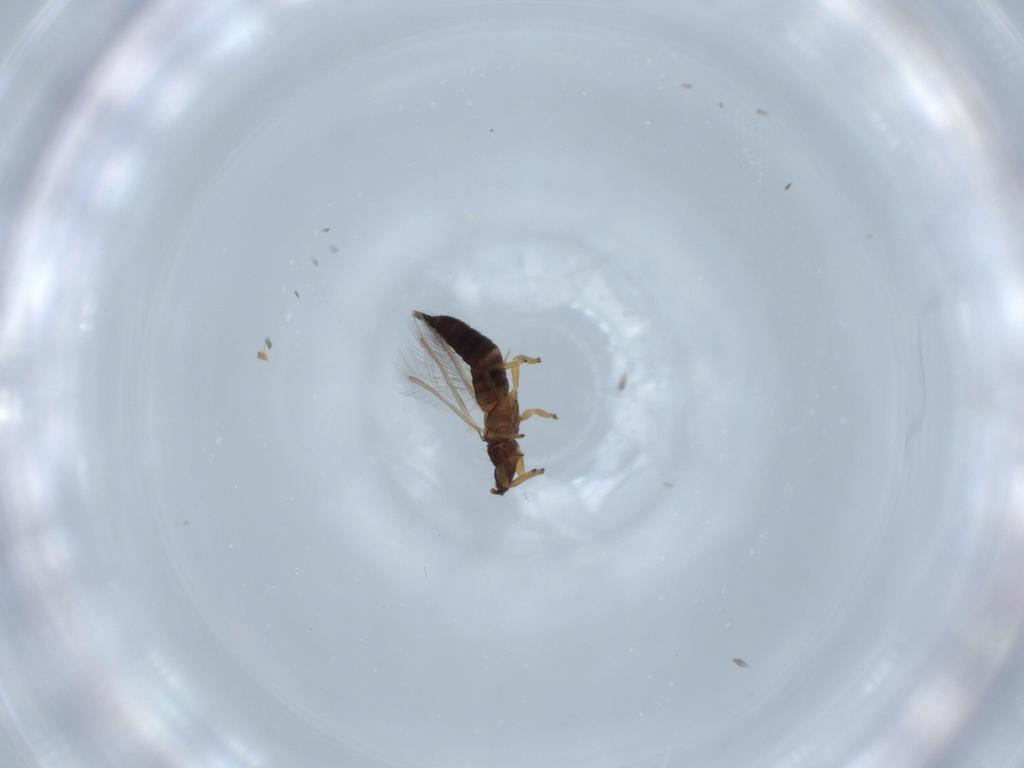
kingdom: Animalia
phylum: Arthropoda
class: Insecta
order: Thysanoptera
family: Phlaeothripidae
